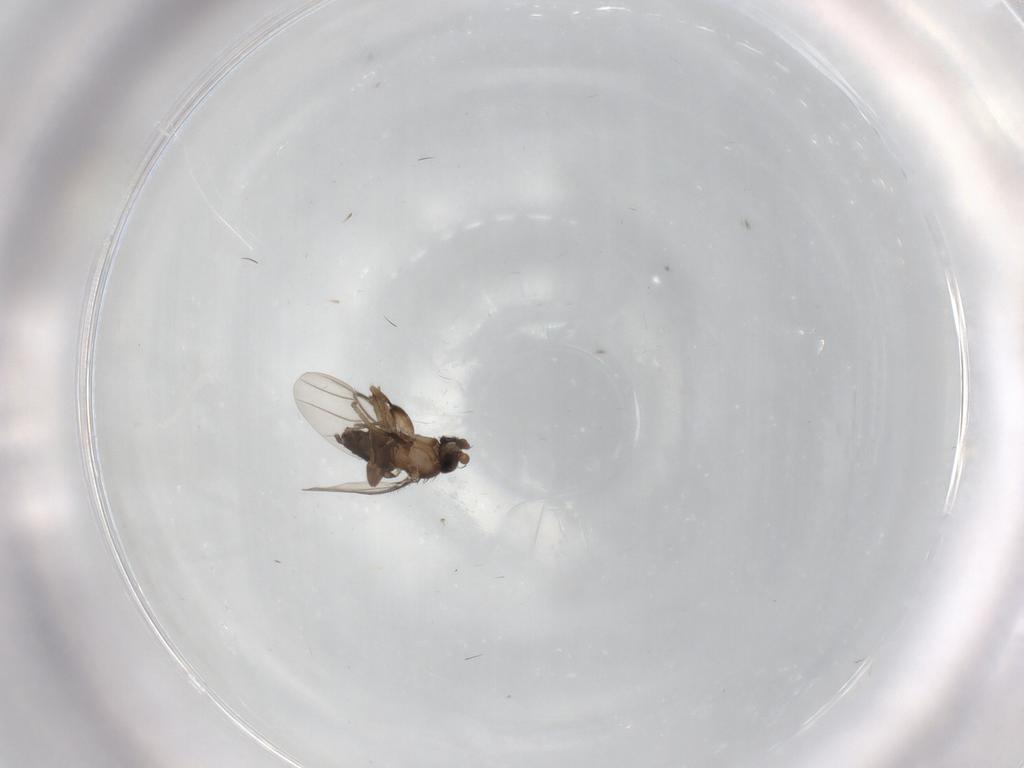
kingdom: Animalia
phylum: Arthropoda
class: Insecta
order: Diptera
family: Phoridae
